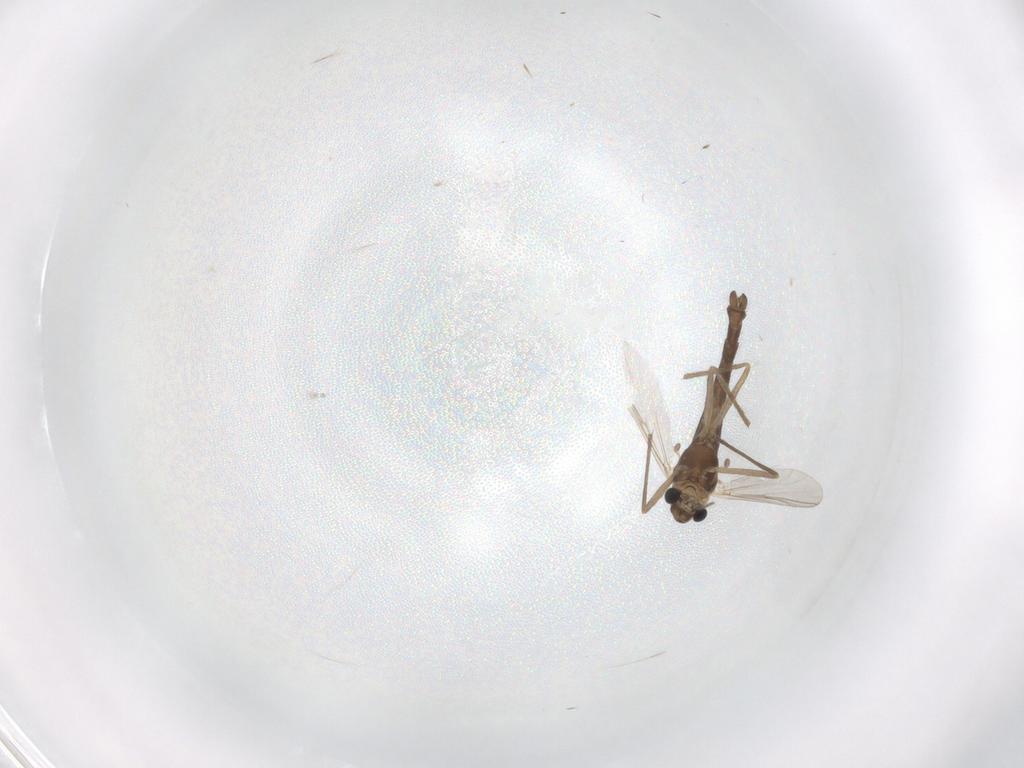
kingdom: Animalia
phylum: Arthropoda
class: Insecta
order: Diptera
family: Chironomidae
